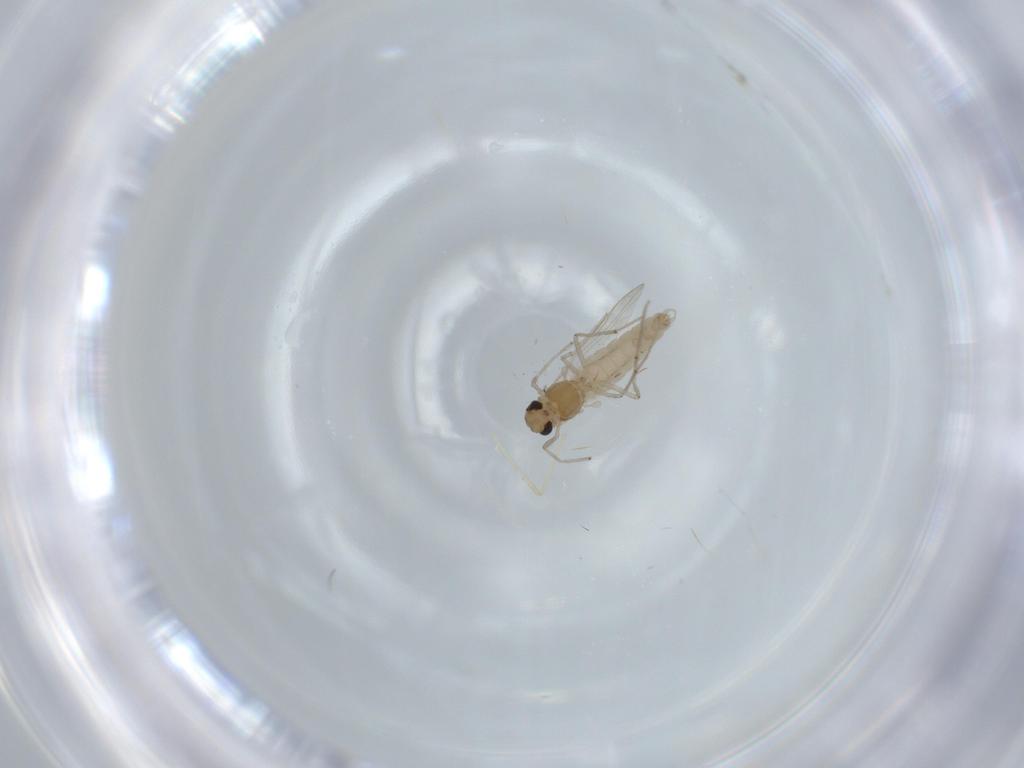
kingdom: Animalia
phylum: Arthropoda
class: Insecta
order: Diptera
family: Chironomidae
